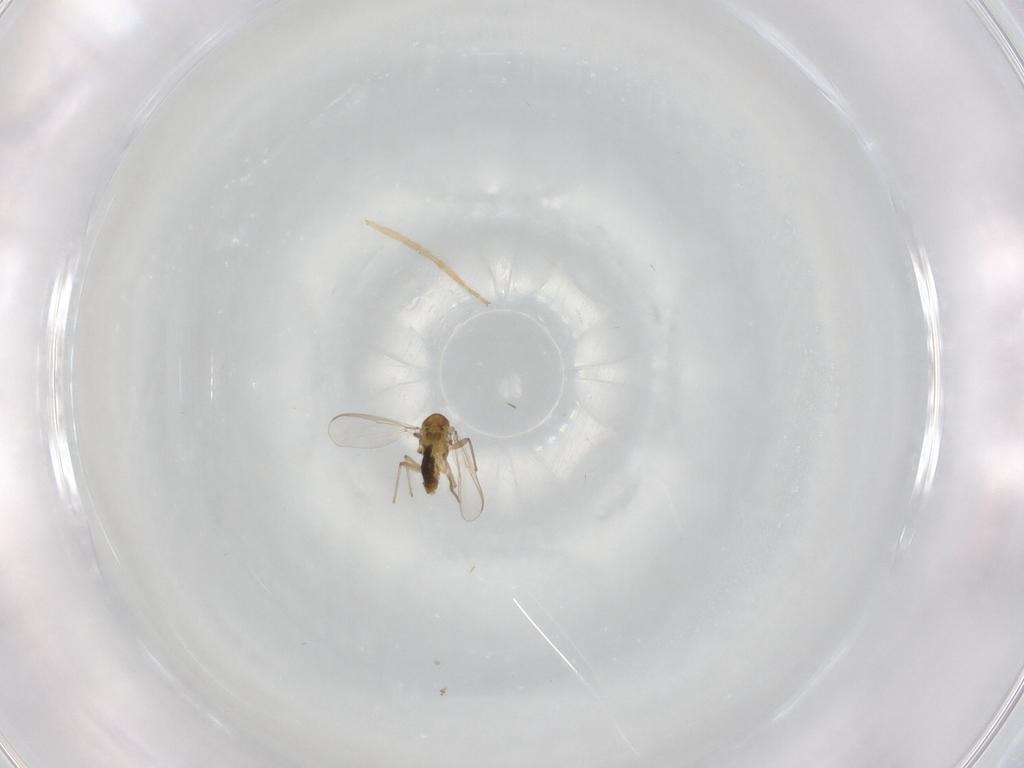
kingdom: Animalia
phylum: Arthropoda
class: Insecta
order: Diptera
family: Chironomidae
